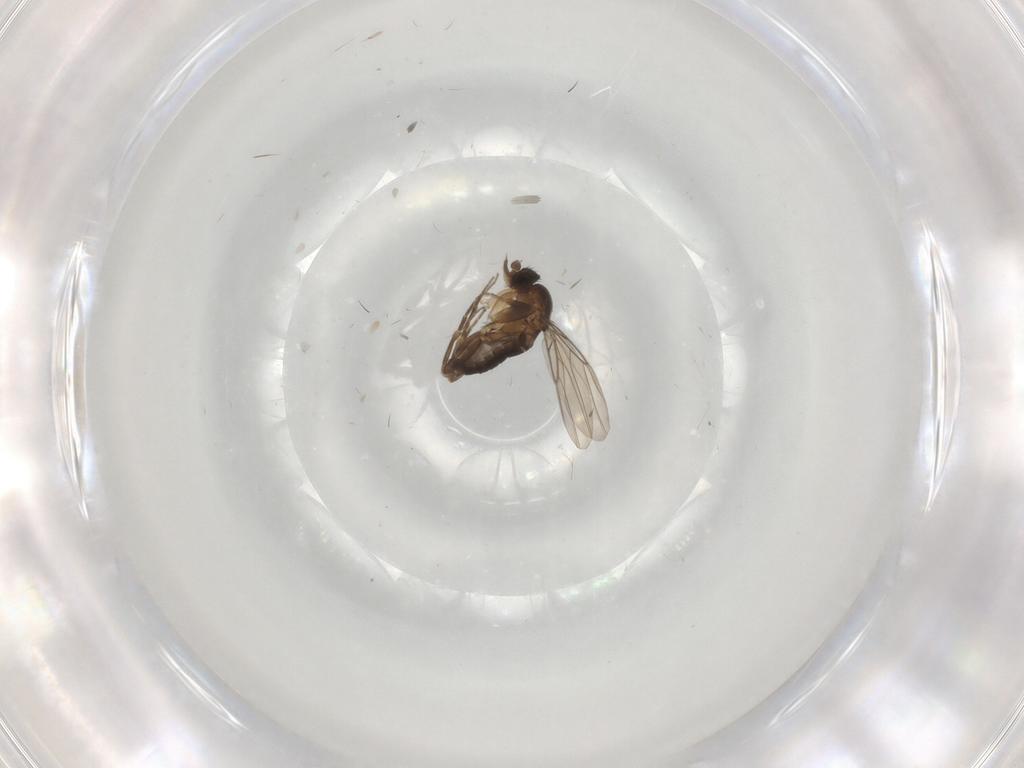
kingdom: Animalia
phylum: Arthropoda
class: Insecta
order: Diptera
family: Phoridae
